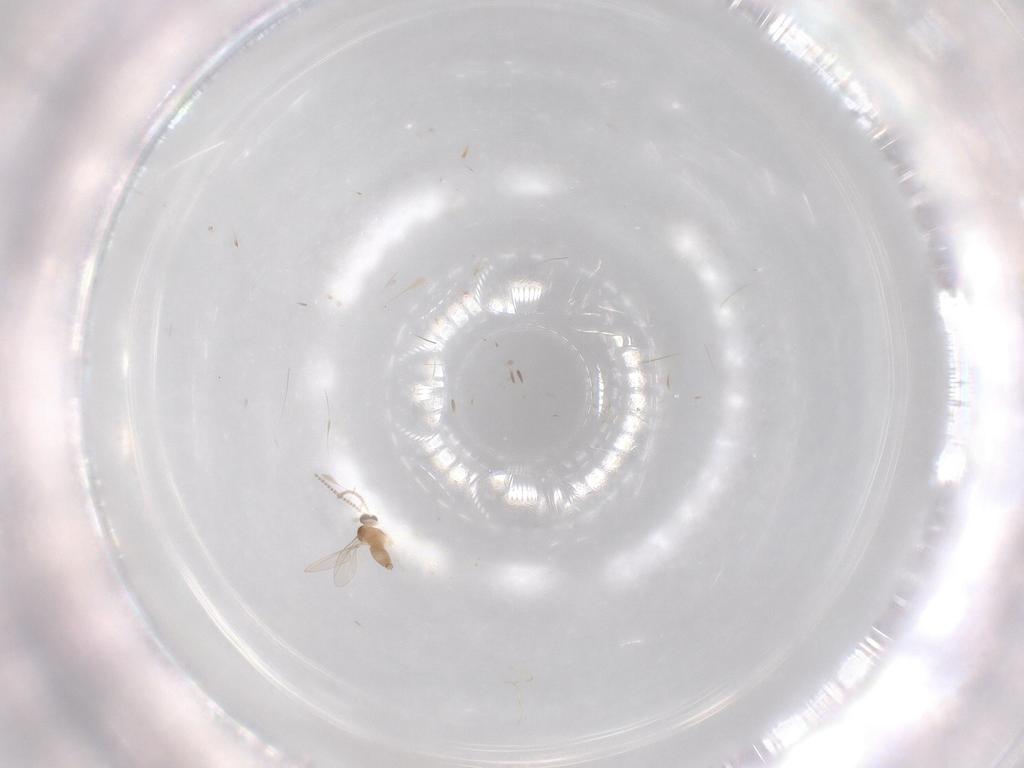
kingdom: Animalia
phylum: Arthropoda
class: Insecta
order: Diptera
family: Cecidomyiidae
